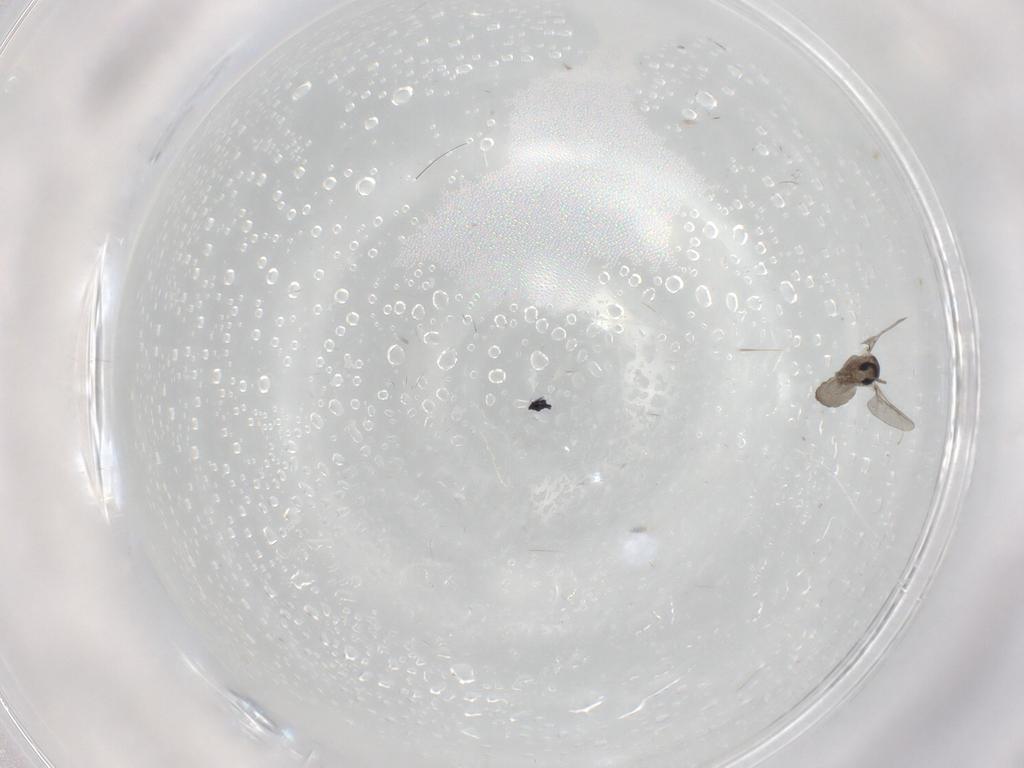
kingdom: Animalia
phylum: Arthropoda
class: Insecta
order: Diptera
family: Cecidomyiidae
